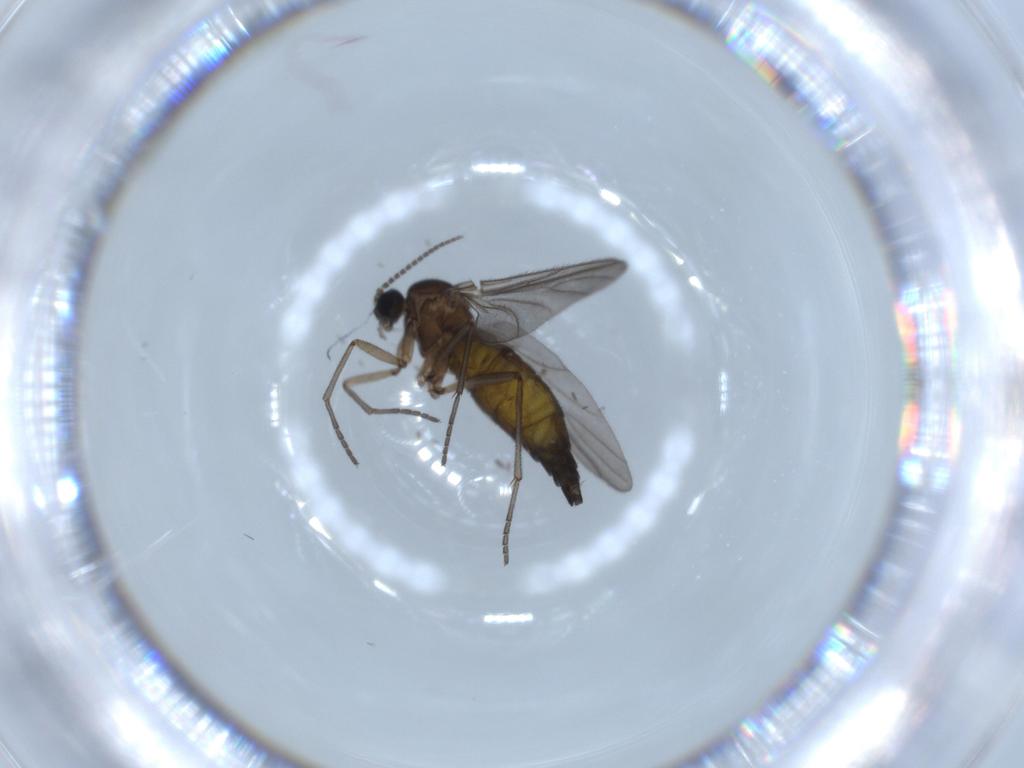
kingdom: Animalia
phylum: Arthropoda
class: Insecta
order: Diptera
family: Sciaridae
